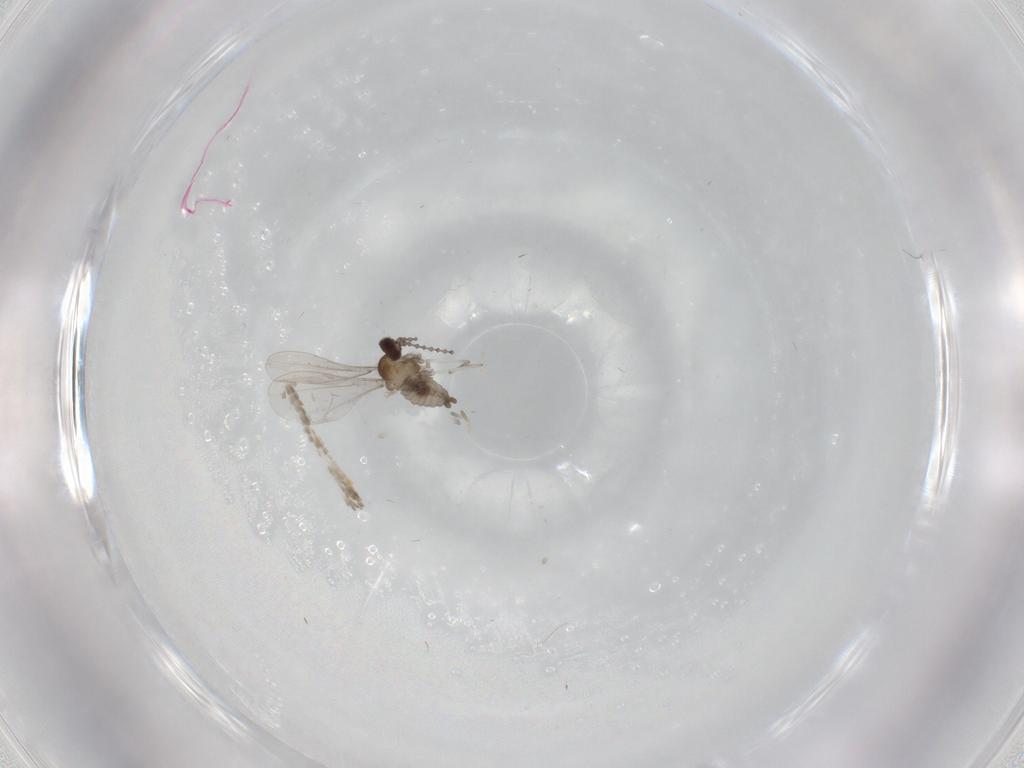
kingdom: Animalia
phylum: Arthropoda
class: Insecta
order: Diptera
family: Cecidomyiidae
